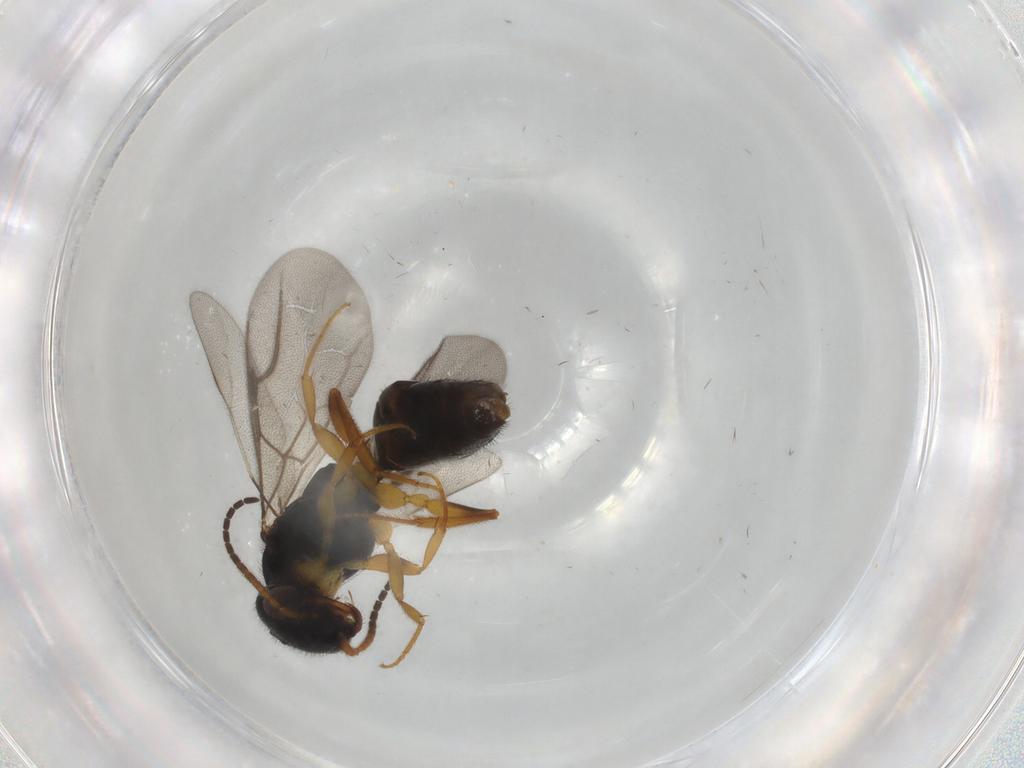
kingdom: Animalia
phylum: Arthropoda
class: Insecta
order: Hymenoptera
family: Bethylidae
